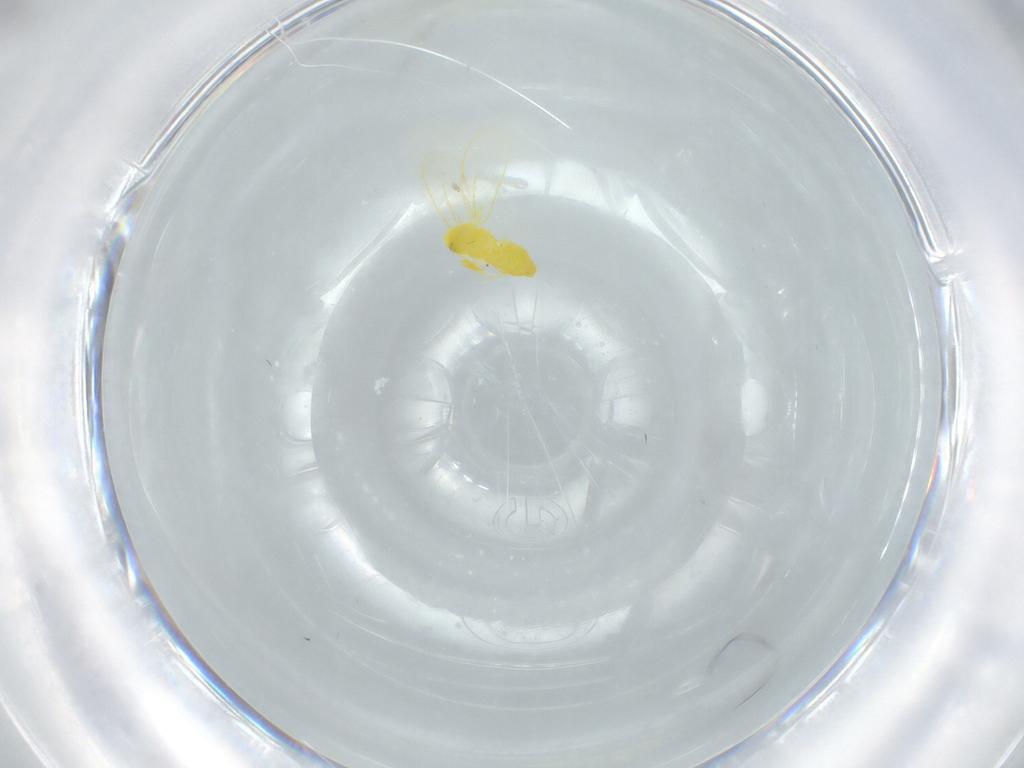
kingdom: Animalia
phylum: Arthropoda
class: Insecta
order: Hemiptera
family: Aleyrodidae
